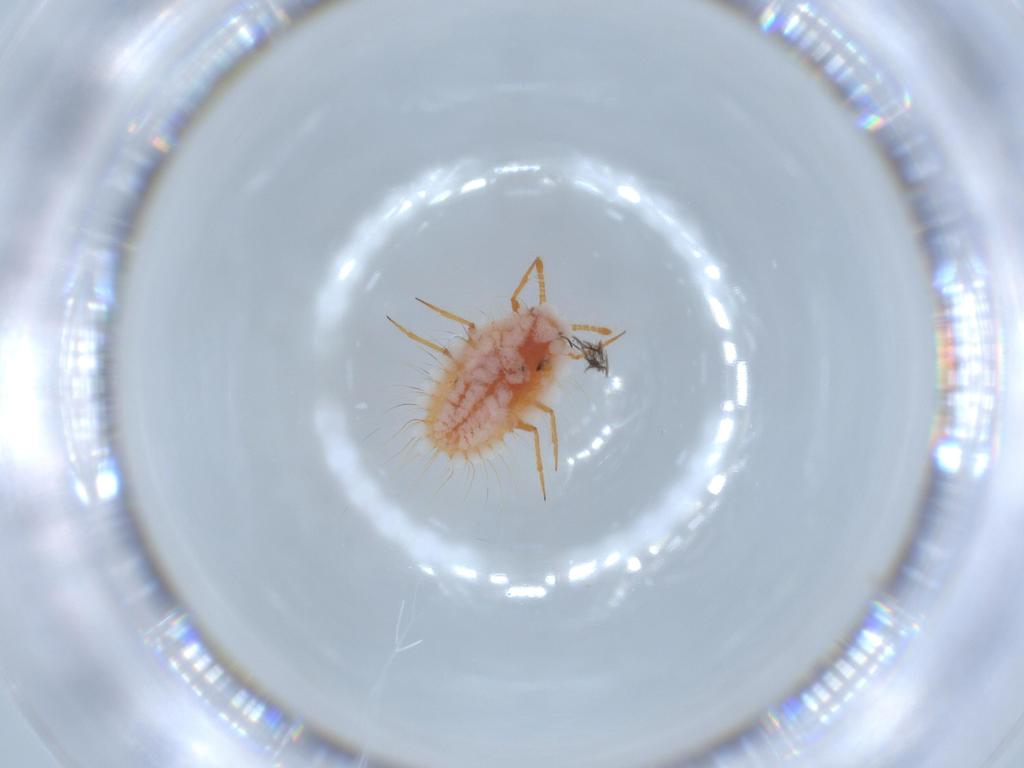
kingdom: Animalia
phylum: Arthropoda
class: Insecta
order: Hemiptera
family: Coccoidea_incertae_sedis
